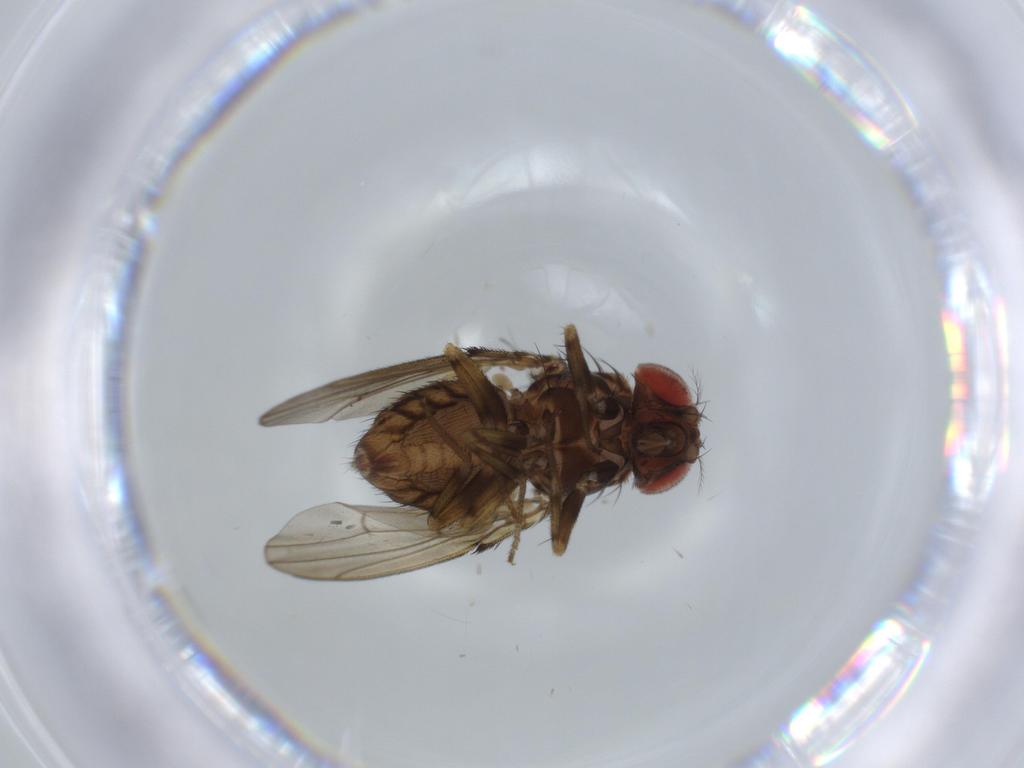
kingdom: Animalia
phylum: Arthropoda
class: Insecta
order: Diptera
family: Drosophilidae
